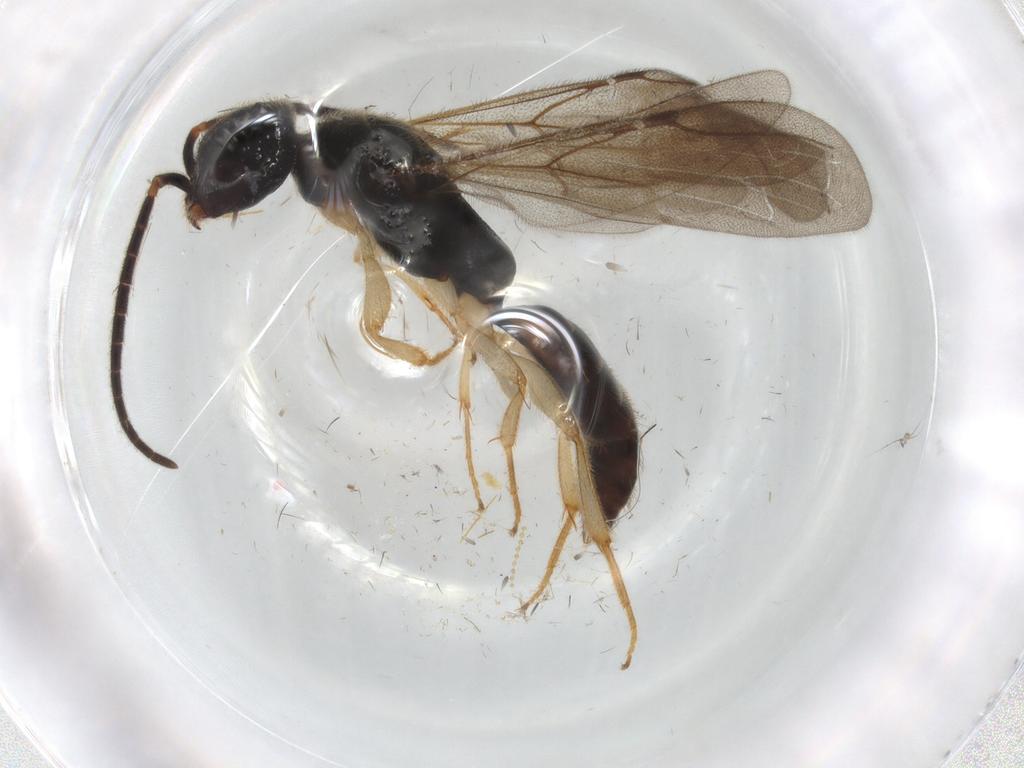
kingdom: Animalia
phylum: Arthropoda
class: Insecta
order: Hymenoptera
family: Bethylidae
